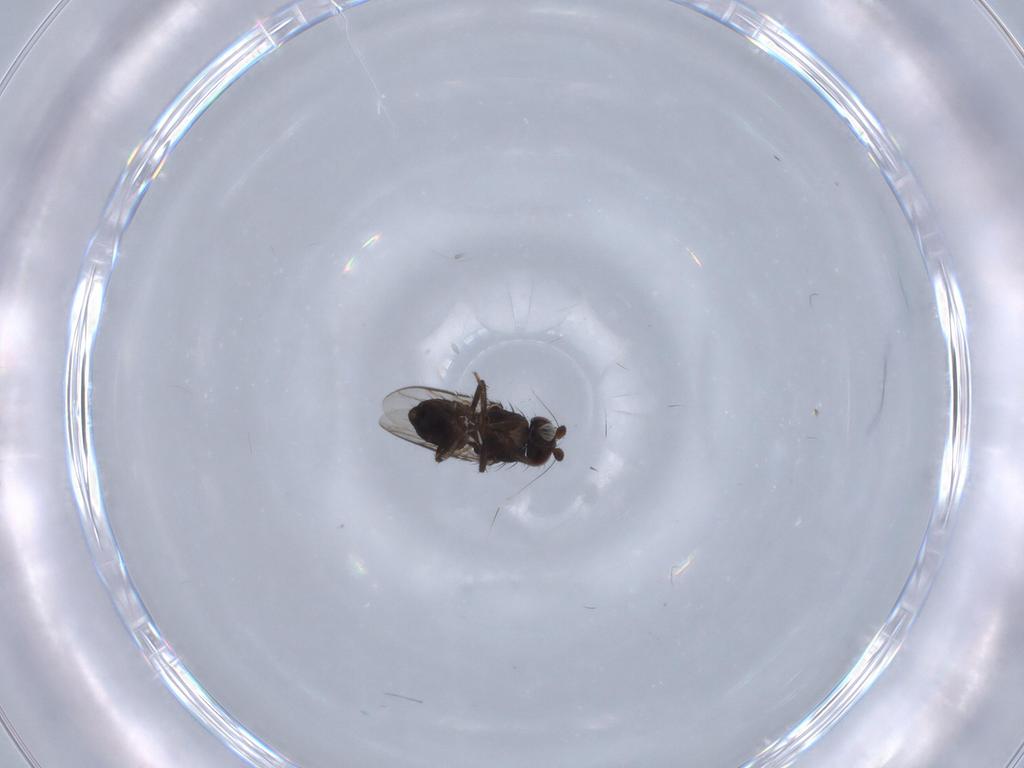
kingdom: Animalia
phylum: Arthropoda
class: Insecta
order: Diptera
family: Chironomidae
